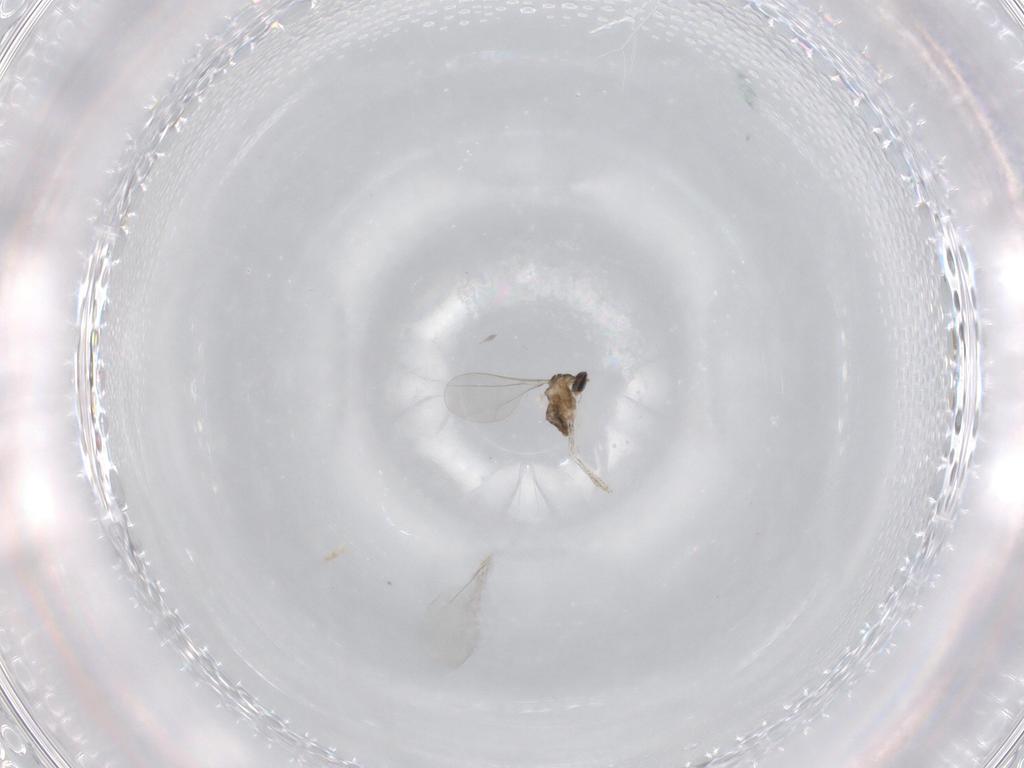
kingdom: Animalia
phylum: Arthropoda
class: Insecta
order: Diptera
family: Cecidomyiidae
